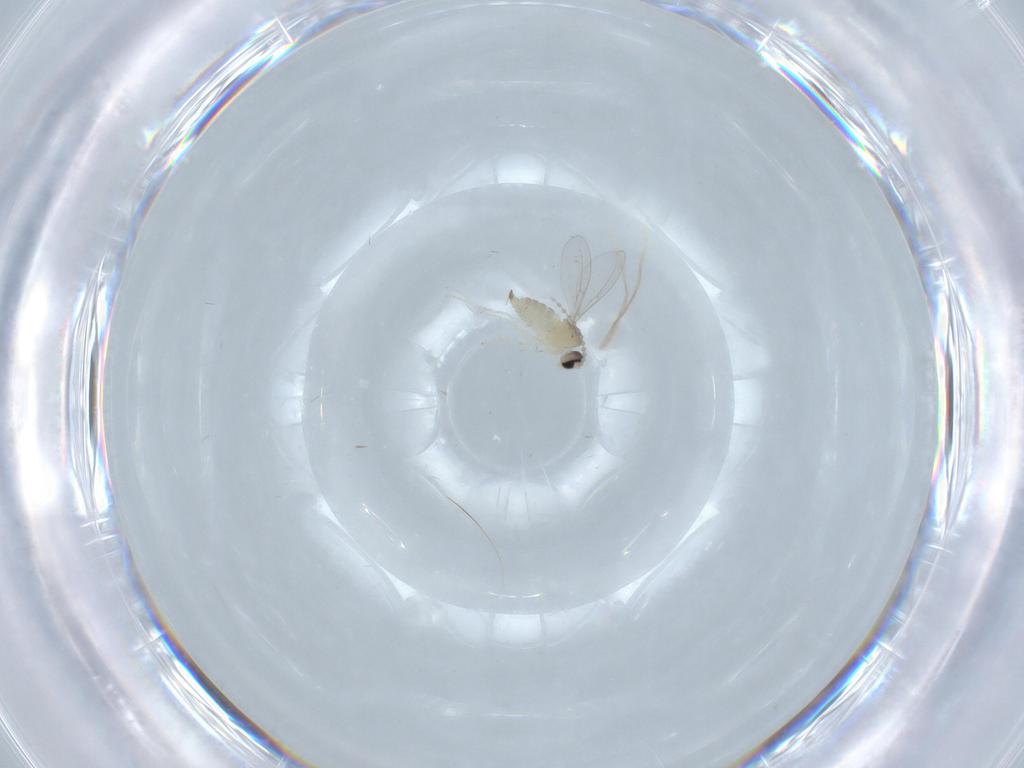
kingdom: Animalia
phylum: Arthropoda
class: Insecta
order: Diptera
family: Cecidomyiidae
